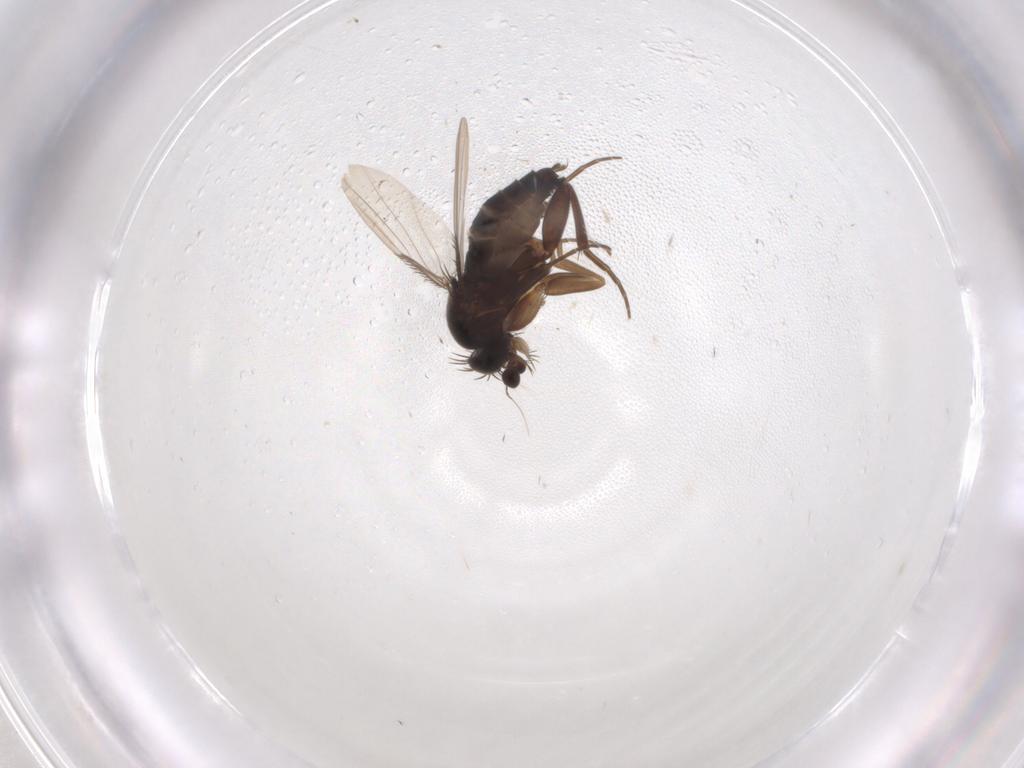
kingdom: Animalia
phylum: Arthropoda
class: Insecta
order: Diptera
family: Phoridae
